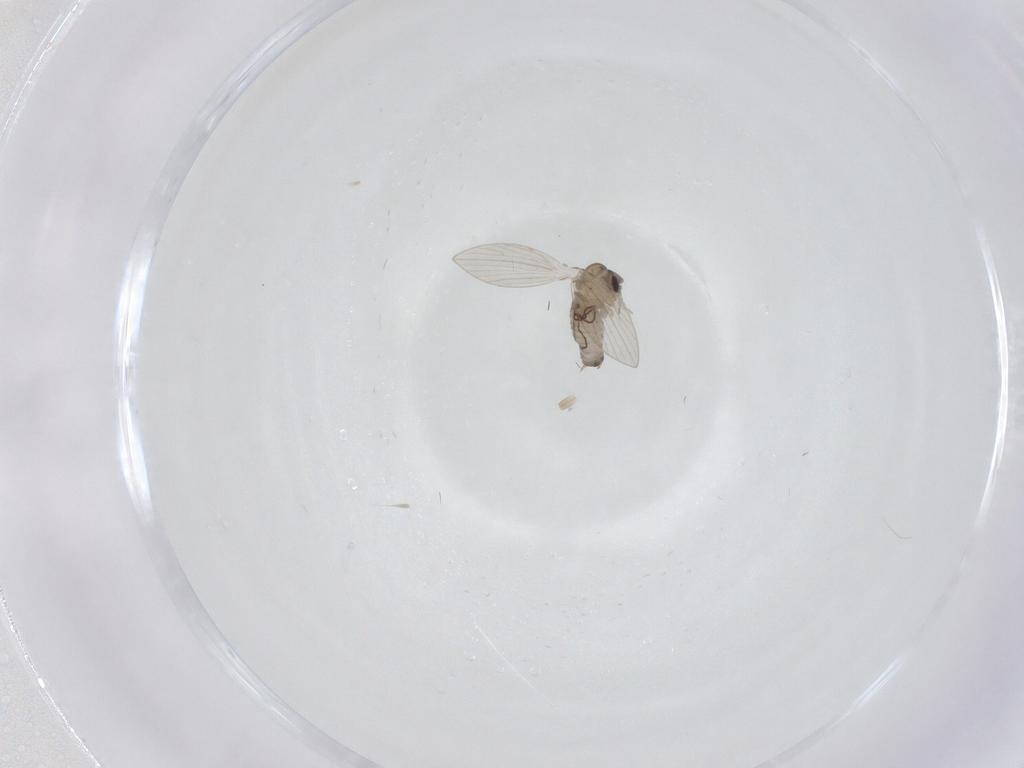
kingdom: Animalia
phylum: Arthropoda
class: Insecta
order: Diptera
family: Psychodidae
